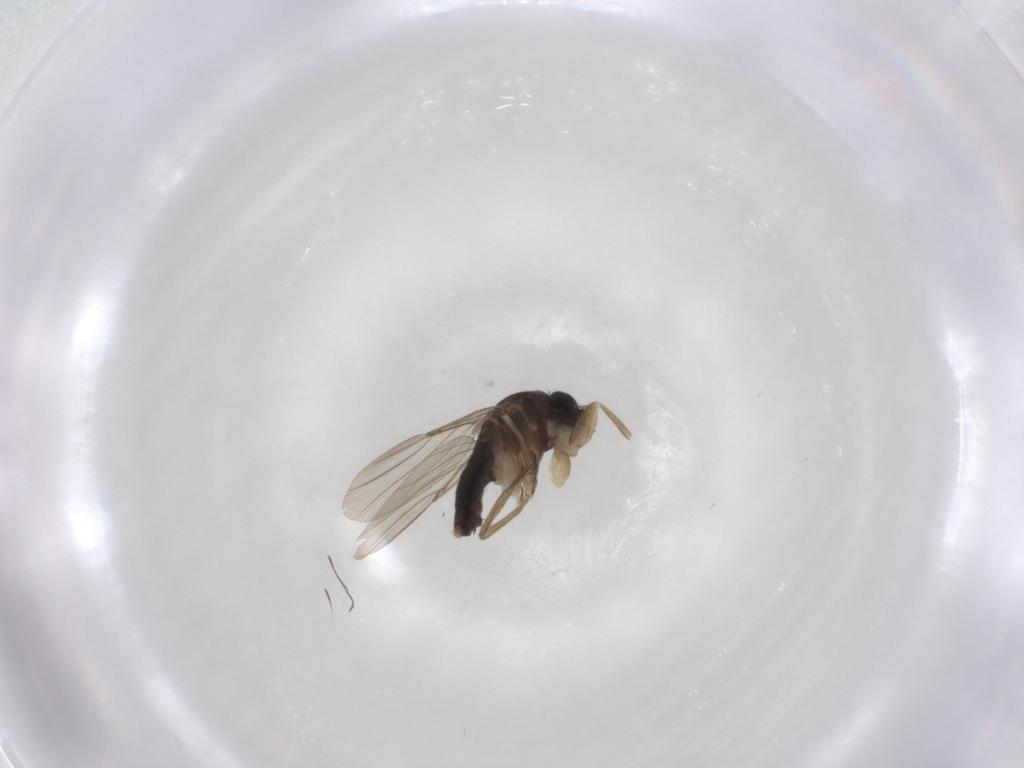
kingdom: Animalia
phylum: Arthropoda
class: Insecta
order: Diptera
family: Phoridae
